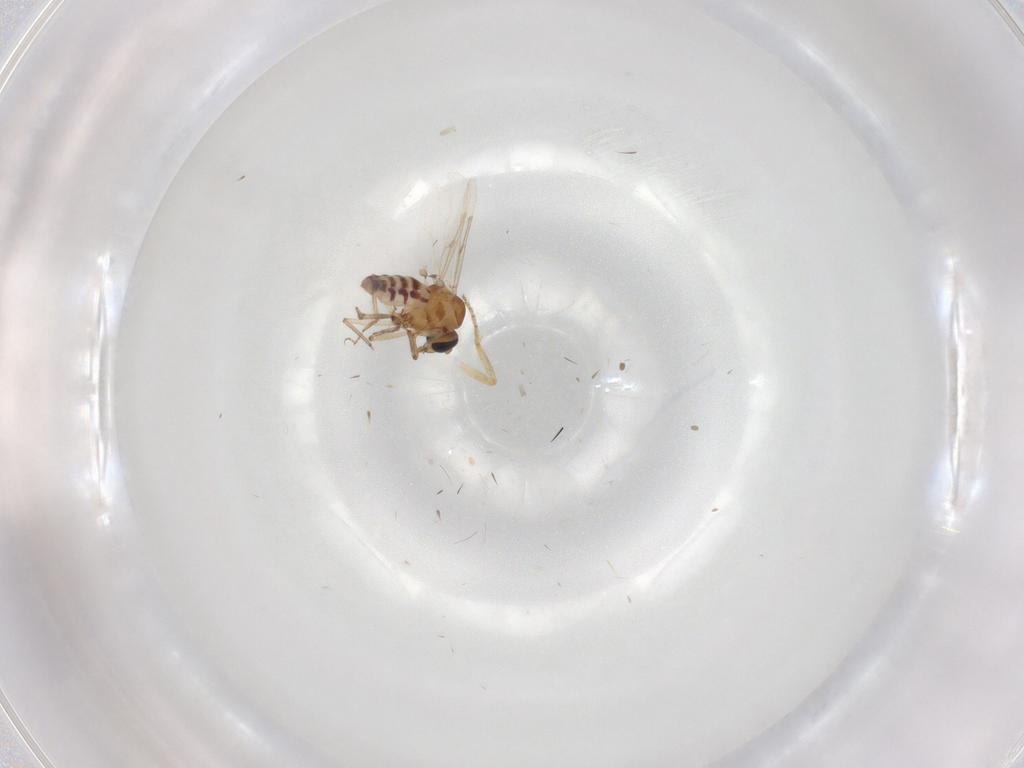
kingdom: Animalia
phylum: Arthropoda
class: Insecta
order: Diptera
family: Ceratopogonidae
